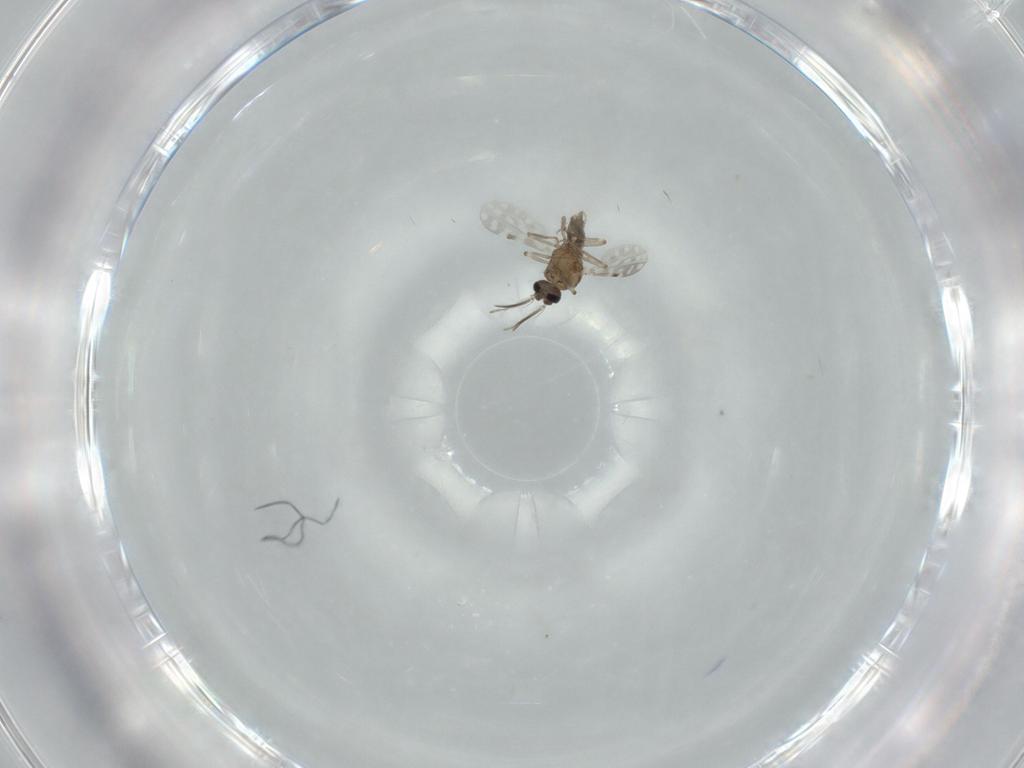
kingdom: Animalia
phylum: Arthropoda
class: Insecta
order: Diptera
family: Ceratopogonidae
